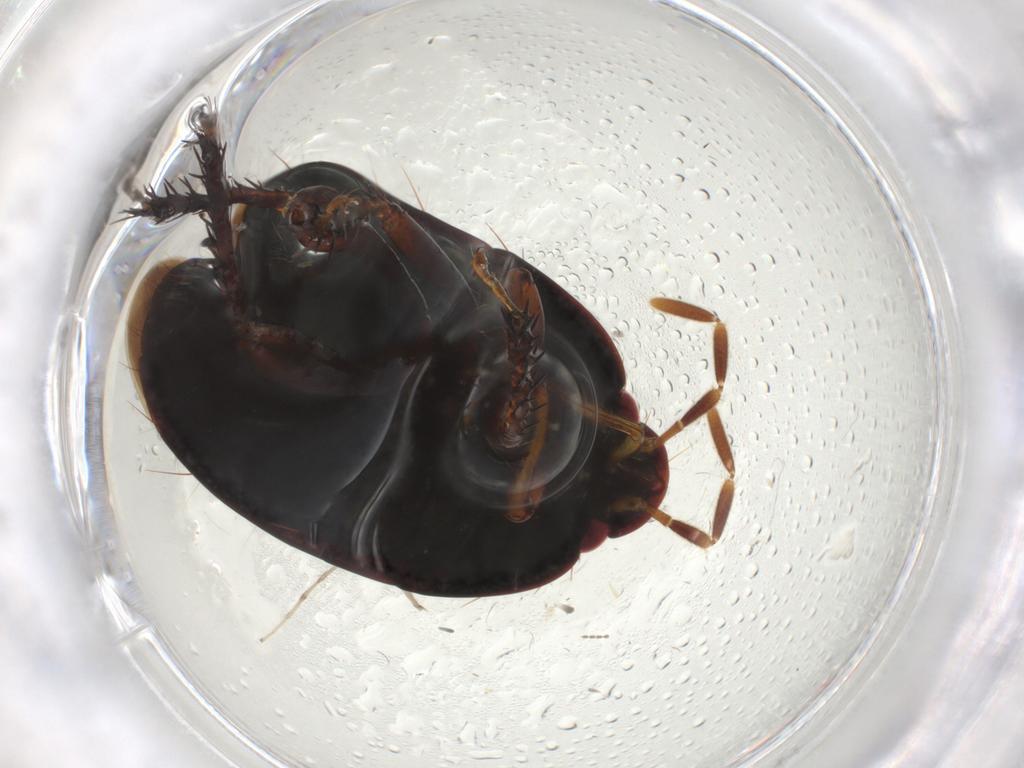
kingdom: Animalia
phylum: Arthropoda
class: Insecta
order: Hemiptera
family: Cydnidae
